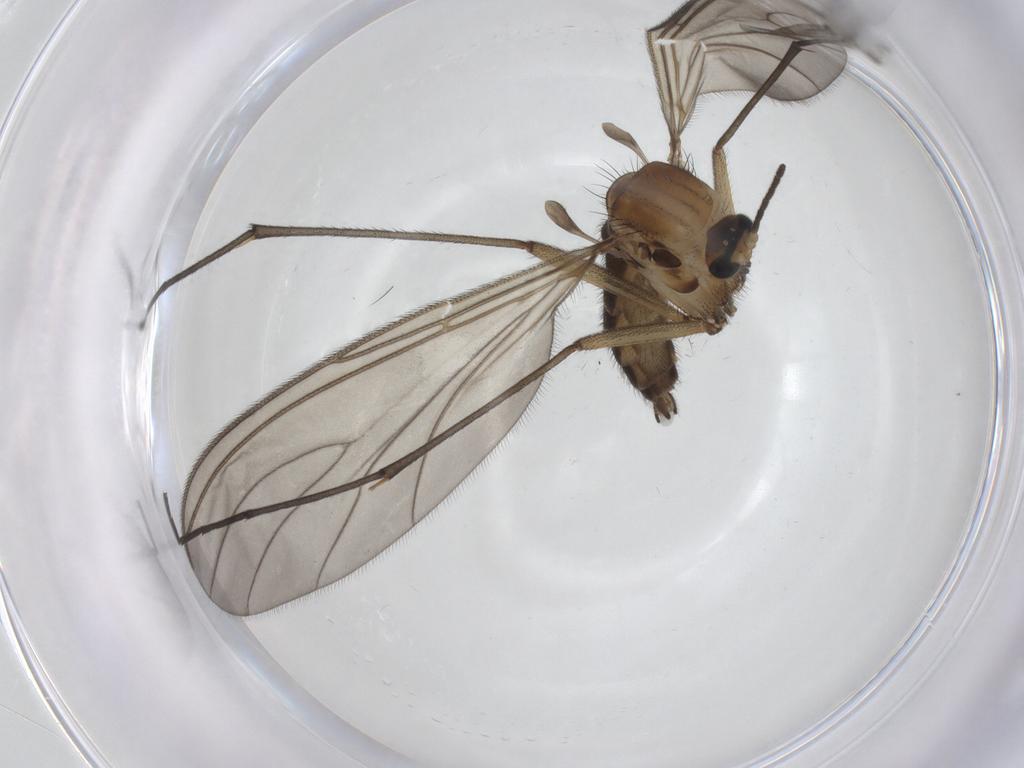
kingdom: Animalia
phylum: Arthropoda
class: Insecta
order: Diptera
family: Sciaridae
